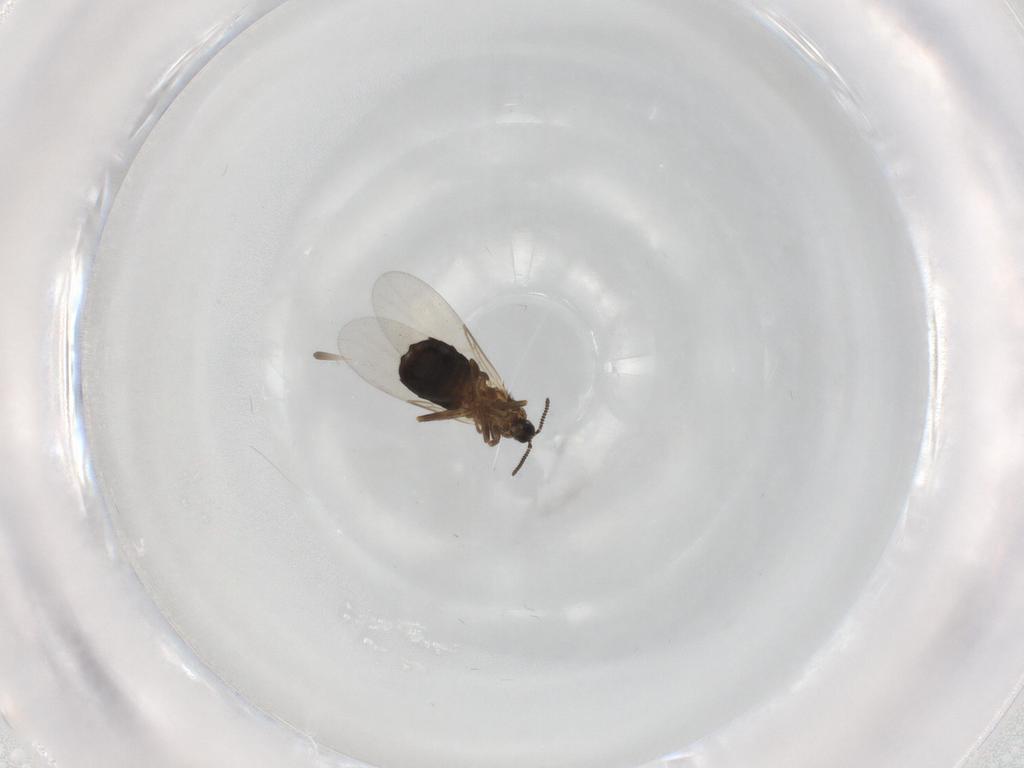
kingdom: Animalia
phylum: Arthropoda
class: Insecta
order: Diptera
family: Scatopsidae
